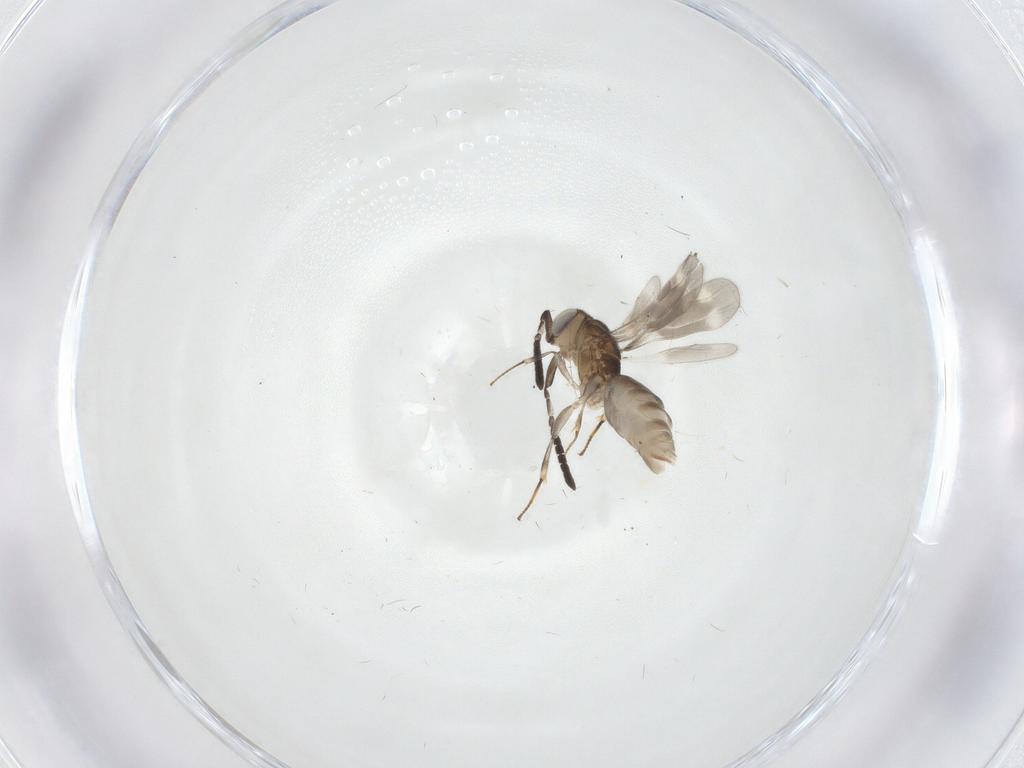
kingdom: Animalia
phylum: Arthropoda
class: Insecta
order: Hymenoptera
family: Megaspilidae
